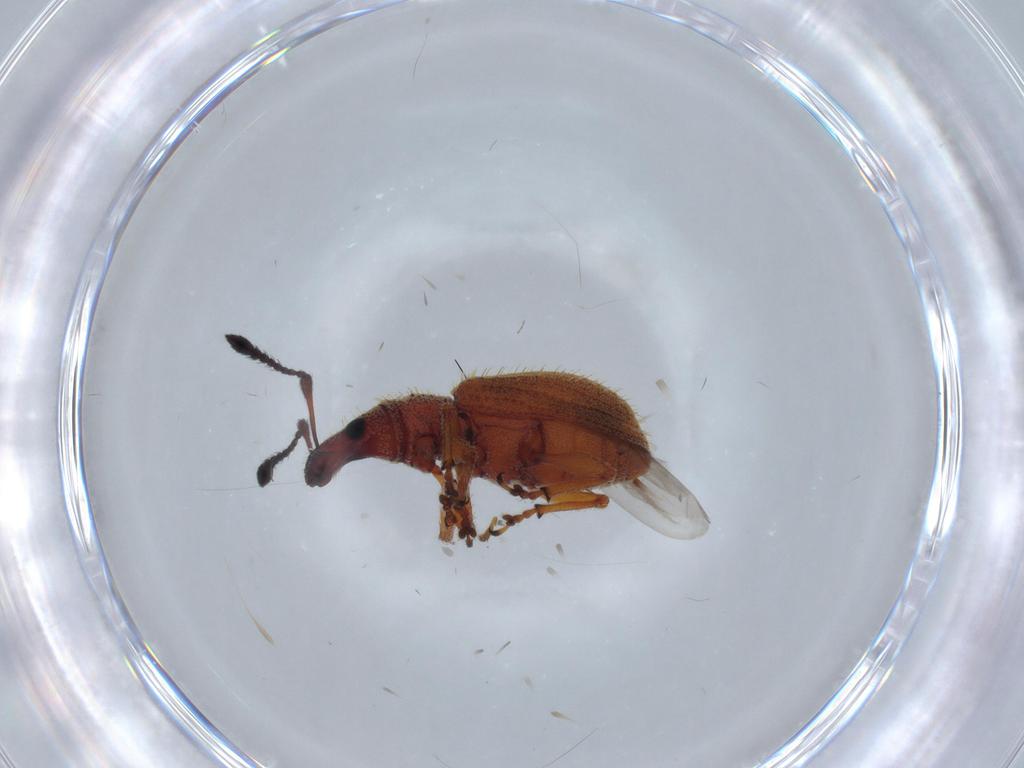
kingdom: Animalia
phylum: Arthropoda
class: Insecta
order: Coleoptera
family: Curculionidae
